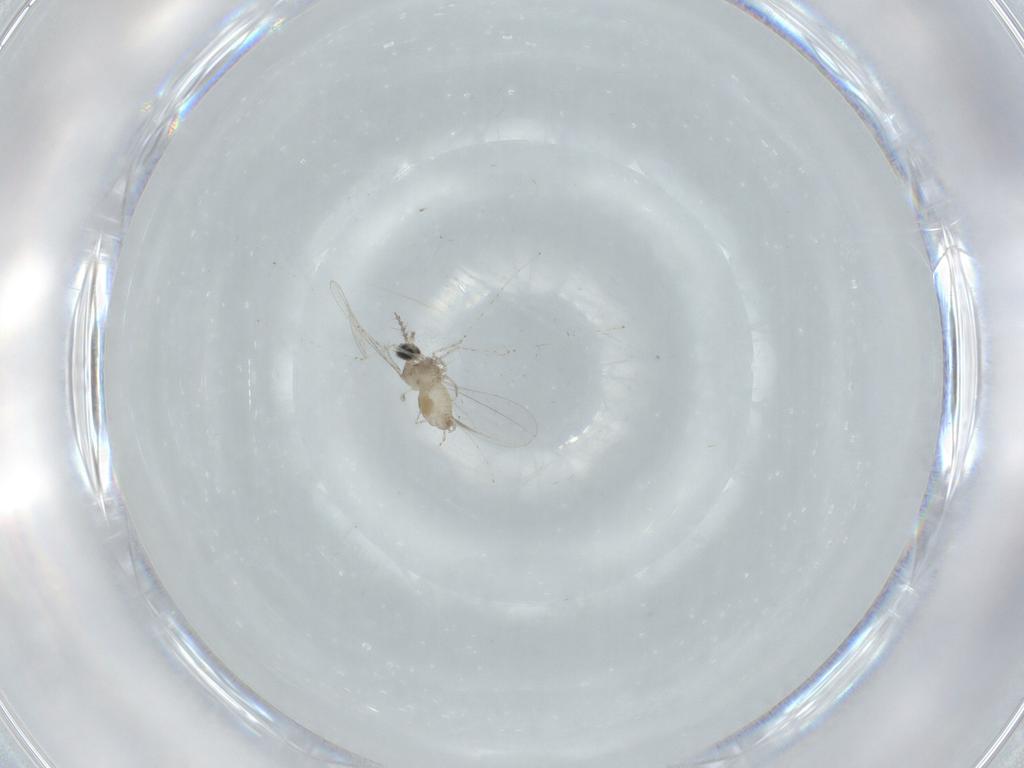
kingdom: Animalia
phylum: Arthropoda
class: Insecta
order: Diptera
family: Cecidomyiidae
